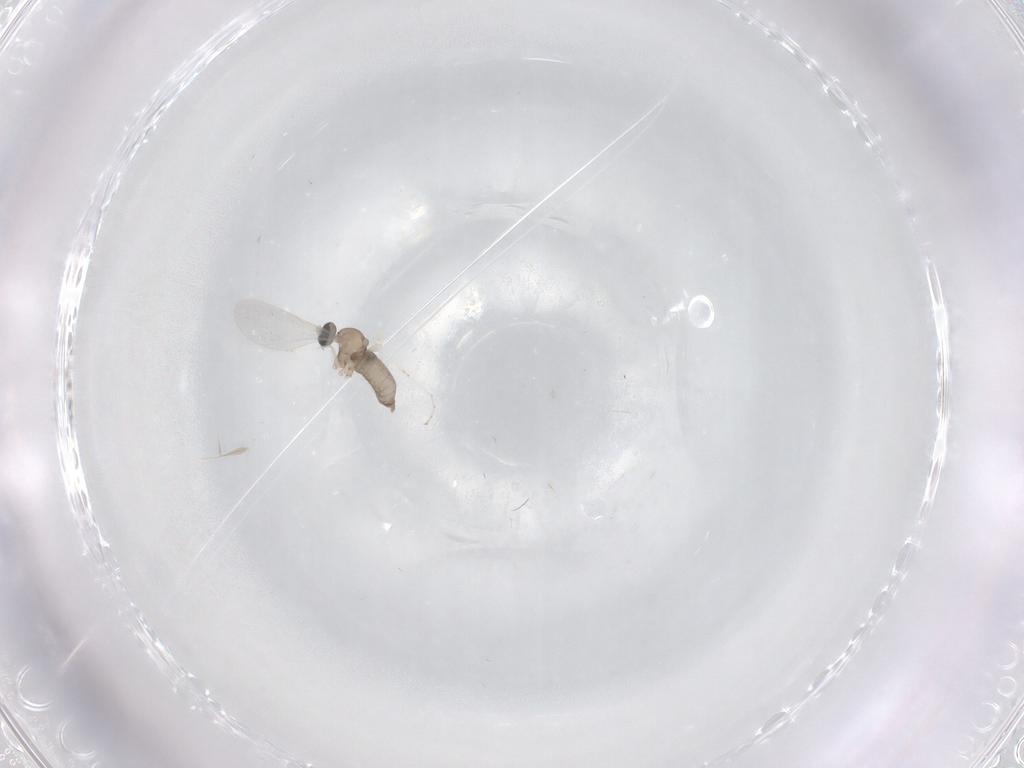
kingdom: Animalia
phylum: Arthropoda
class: Insecta
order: Diptera
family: Cecidomyiidae
